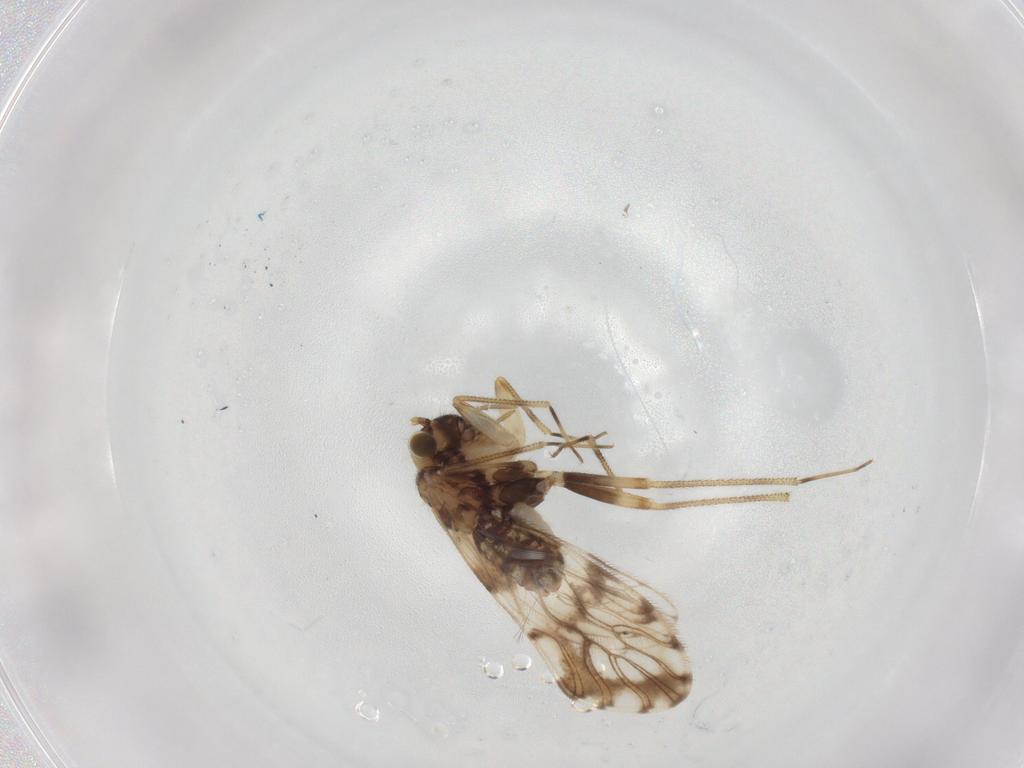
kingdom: Animalia
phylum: Arthropoda
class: Insecta
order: Psocodea
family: Epipsocidae
